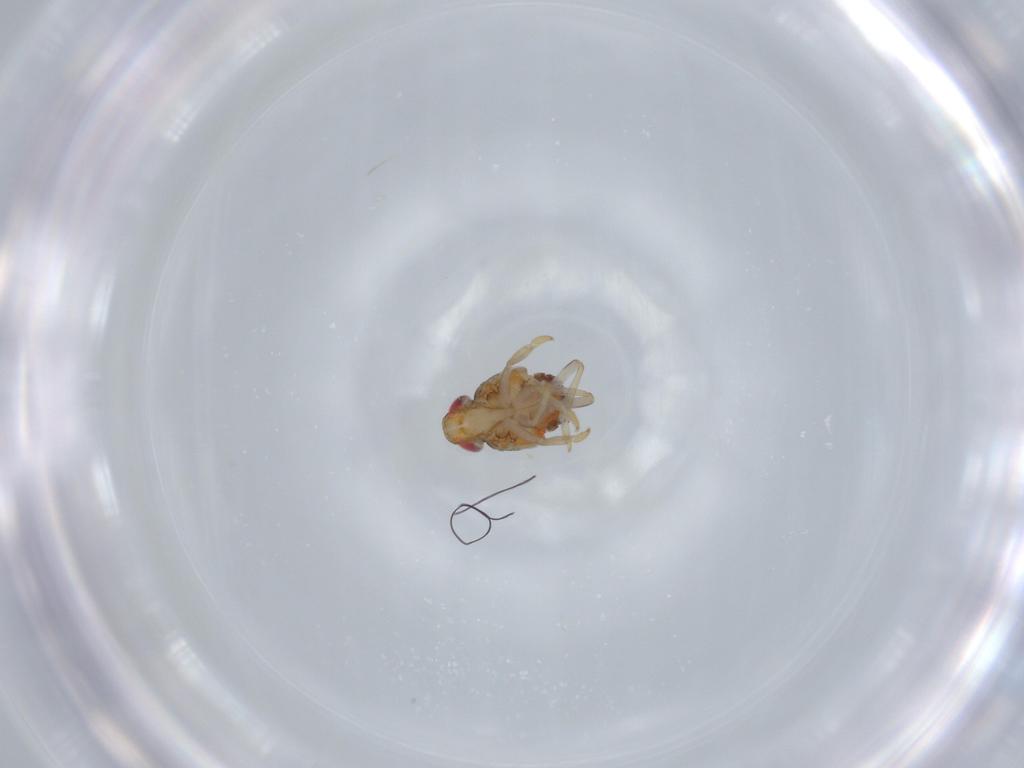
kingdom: Animalia
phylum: Arthropoda
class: Insecta
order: Hemiptera
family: Issidae
